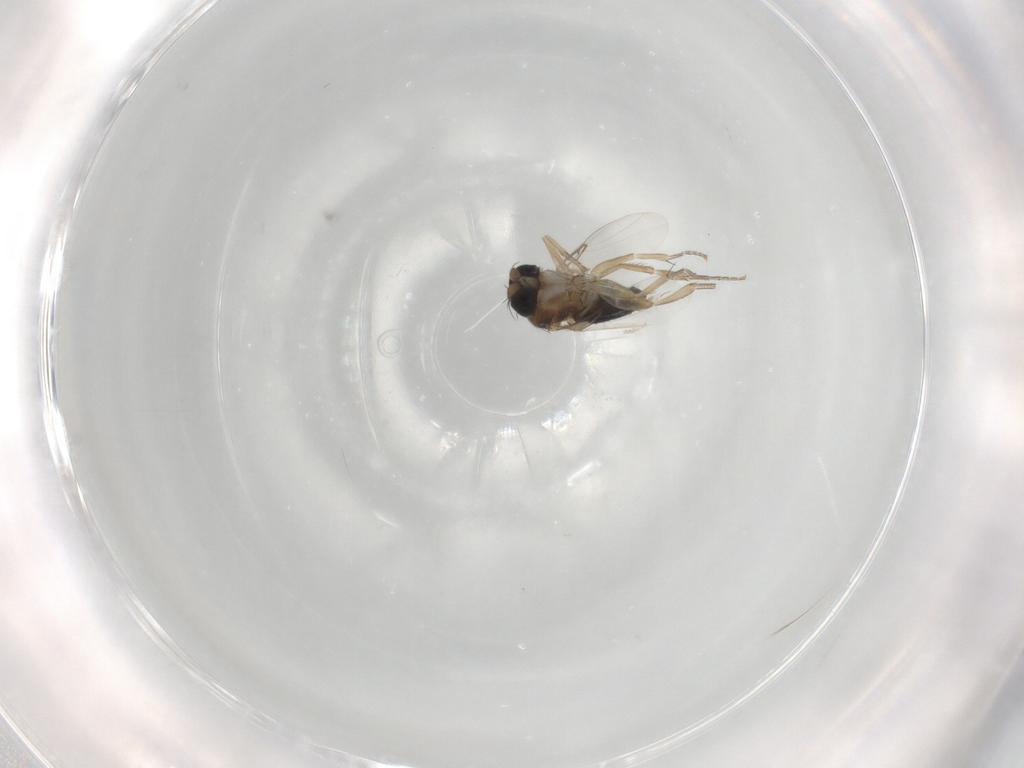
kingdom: Animalia
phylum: Arthropoda
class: Insecta
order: Diptera
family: Phoridae
